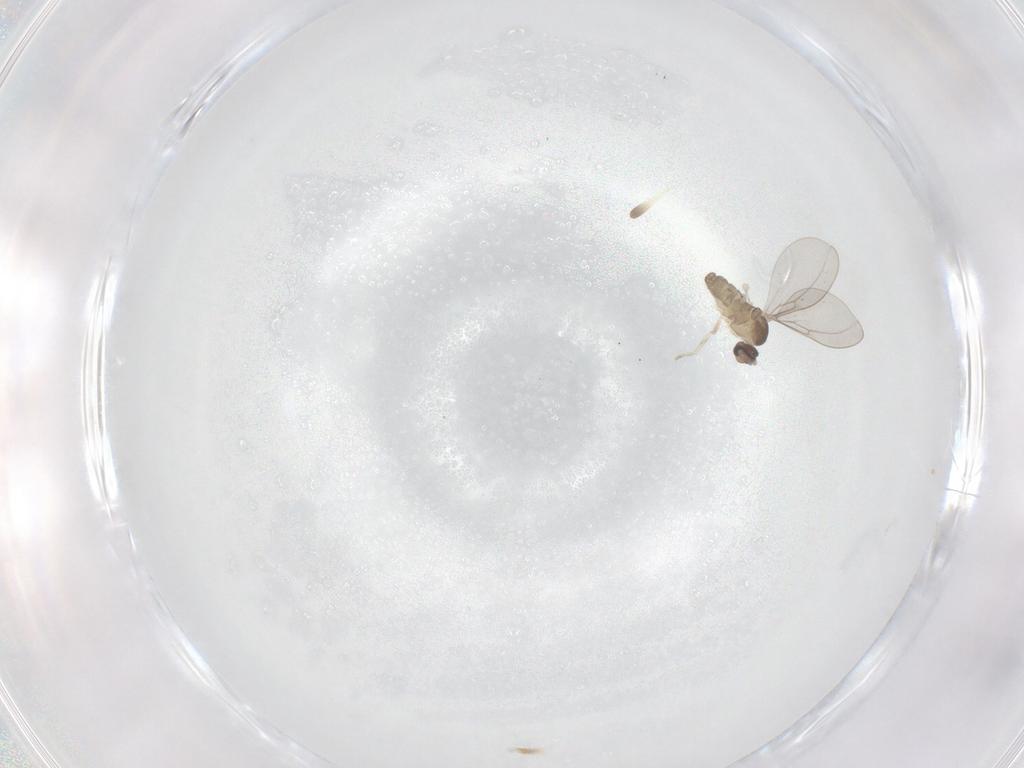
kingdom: Animalia
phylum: Arthropoda
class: Insecta
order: Diptera
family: Cecidomyiidae
